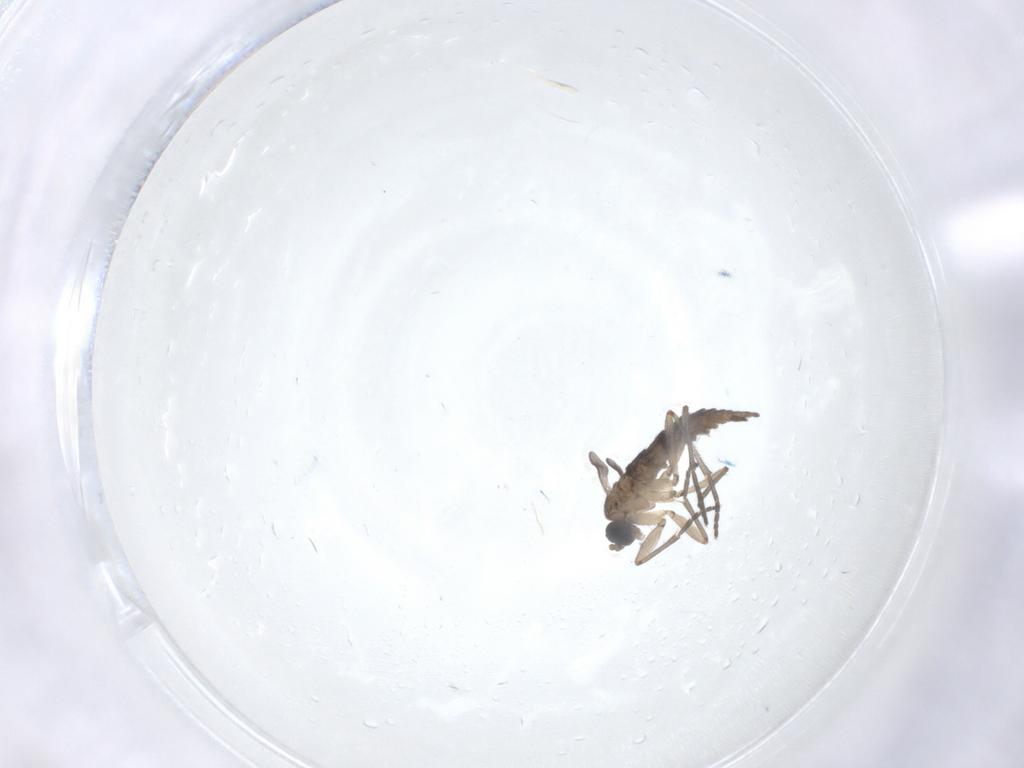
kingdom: Animalia
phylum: Arthropoda
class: Insecta
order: Diptera
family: Sciaridae
